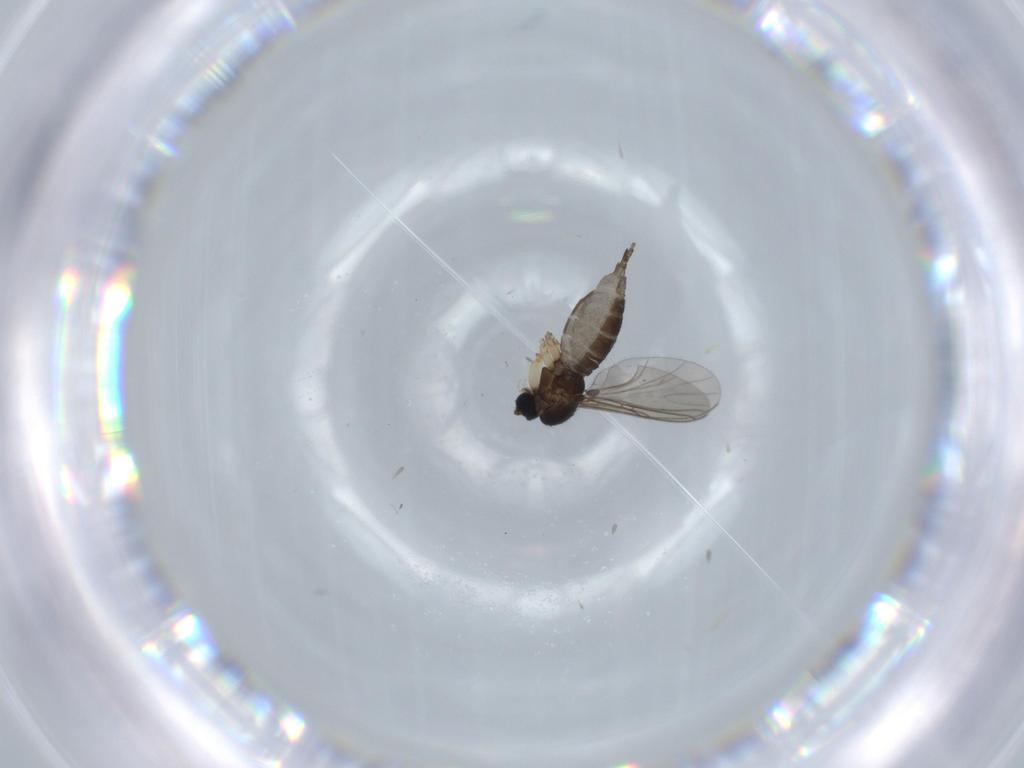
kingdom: Animalia
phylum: Arthropoda
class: Insecta
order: Diptera
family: Sciaridae
